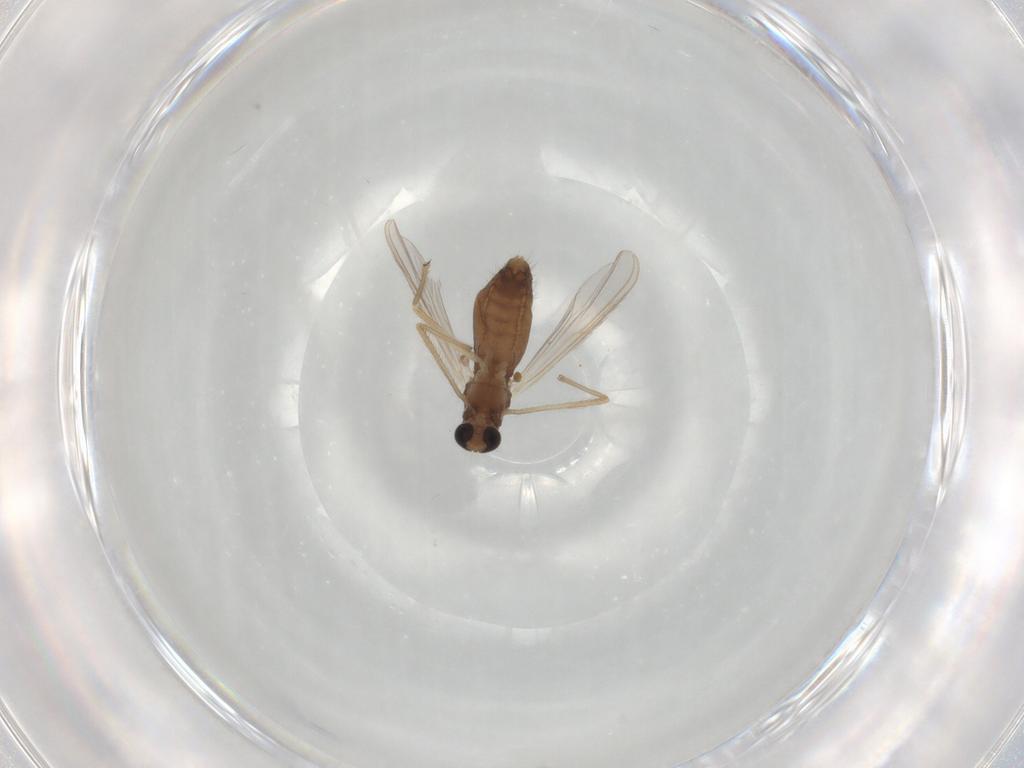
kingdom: Animalia
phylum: Arthropoda
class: Insecta
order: Diptera
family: Chironomidae
